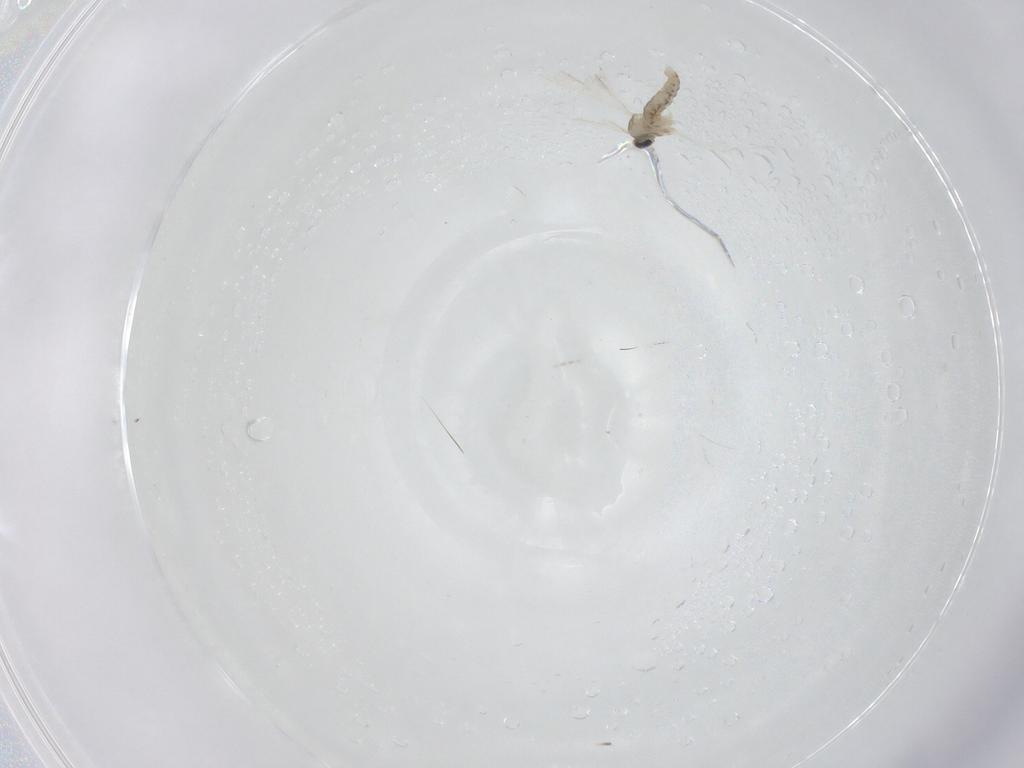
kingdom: Animalia
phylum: Arthropoda
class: Insecta
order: Diptera
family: Cecidomyiidae
